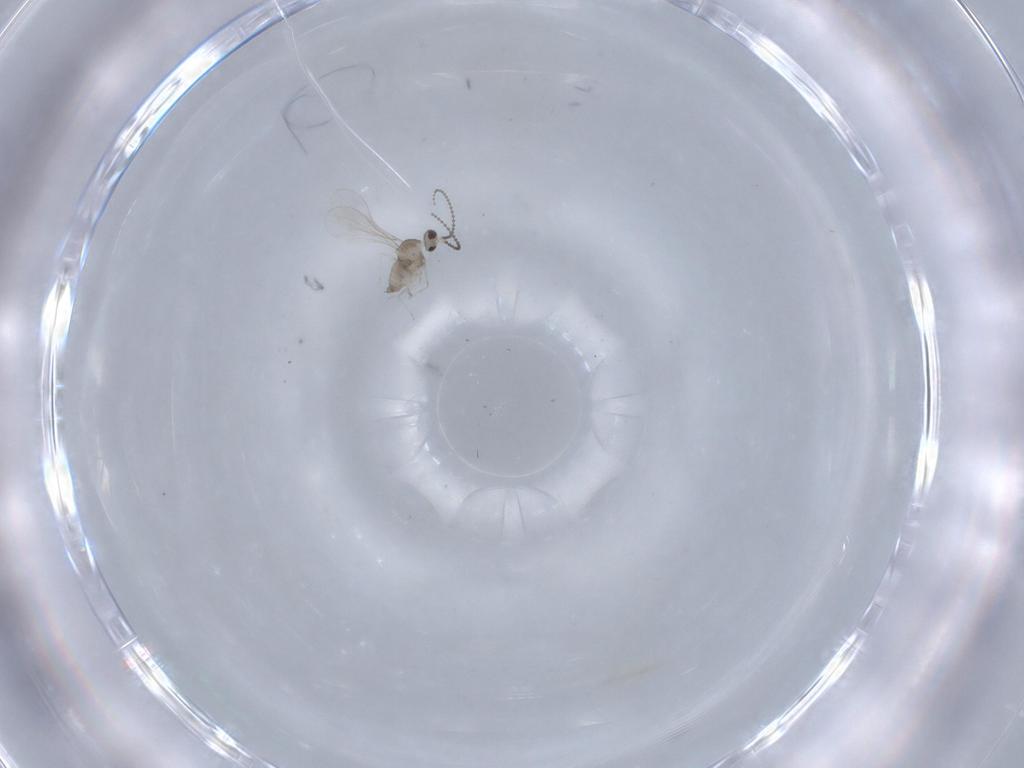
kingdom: Animalia
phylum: Arthropoda
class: Insecta
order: Diptera
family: Cecidomyiidae
